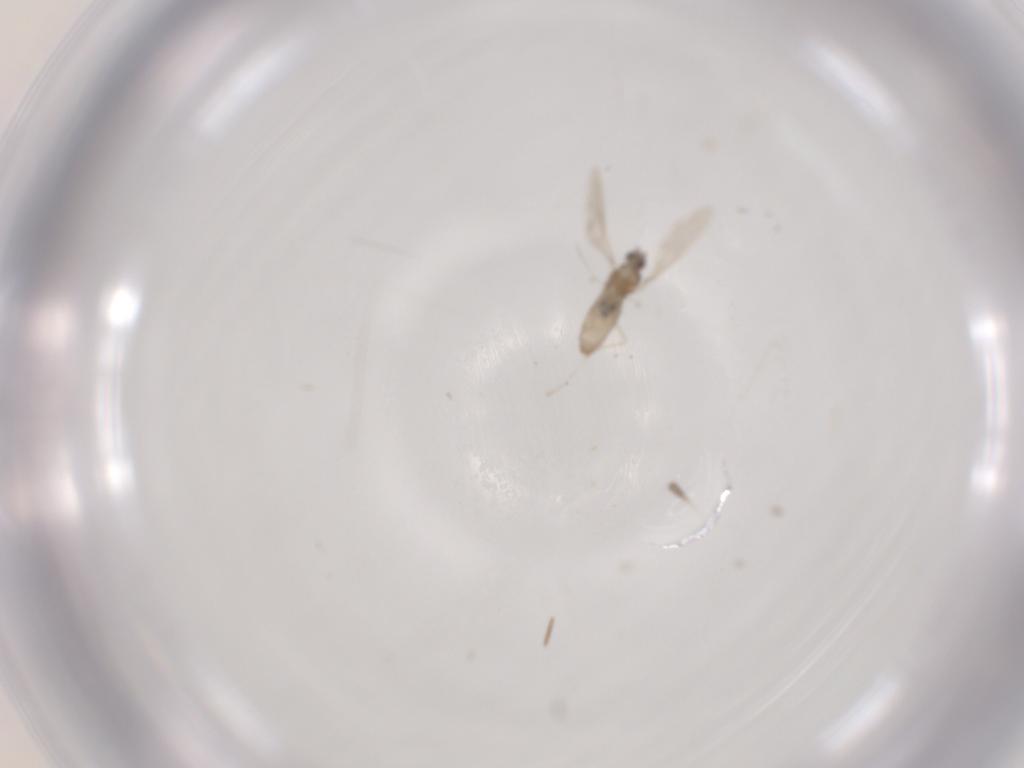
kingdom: Animalia
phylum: Arthropoda
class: Insecta
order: Diptera
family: Cecidomyiidae
